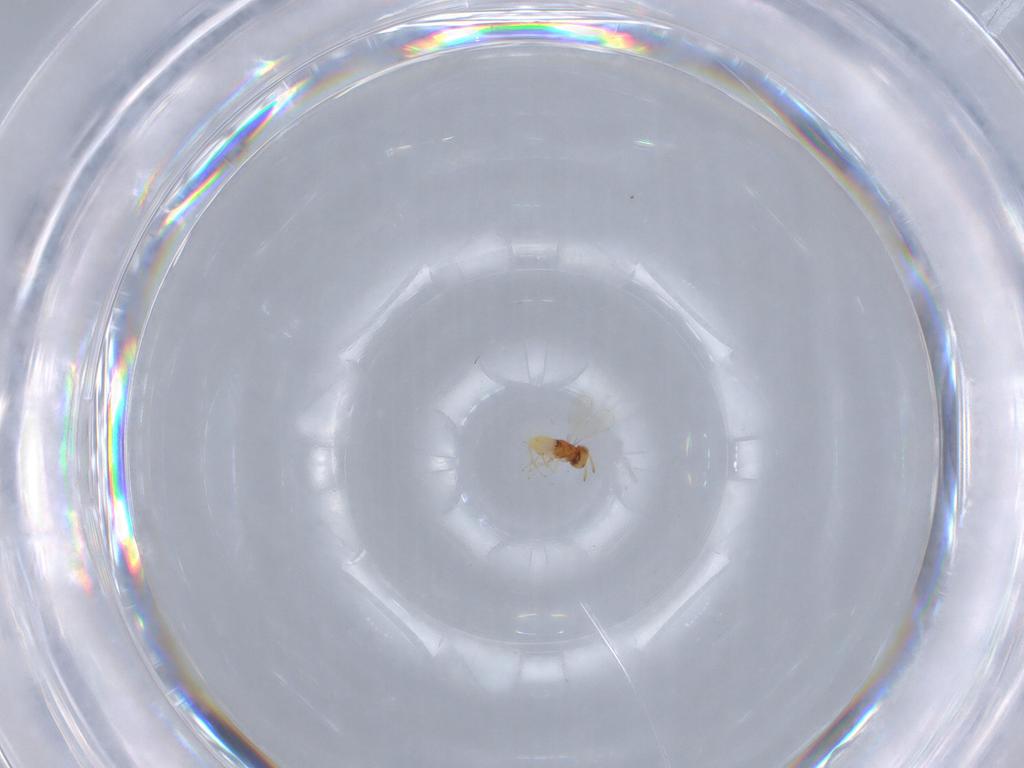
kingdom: Animalia
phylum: Arthropoda
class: Insecta
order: Hymenoptera
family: Aphelinidae
